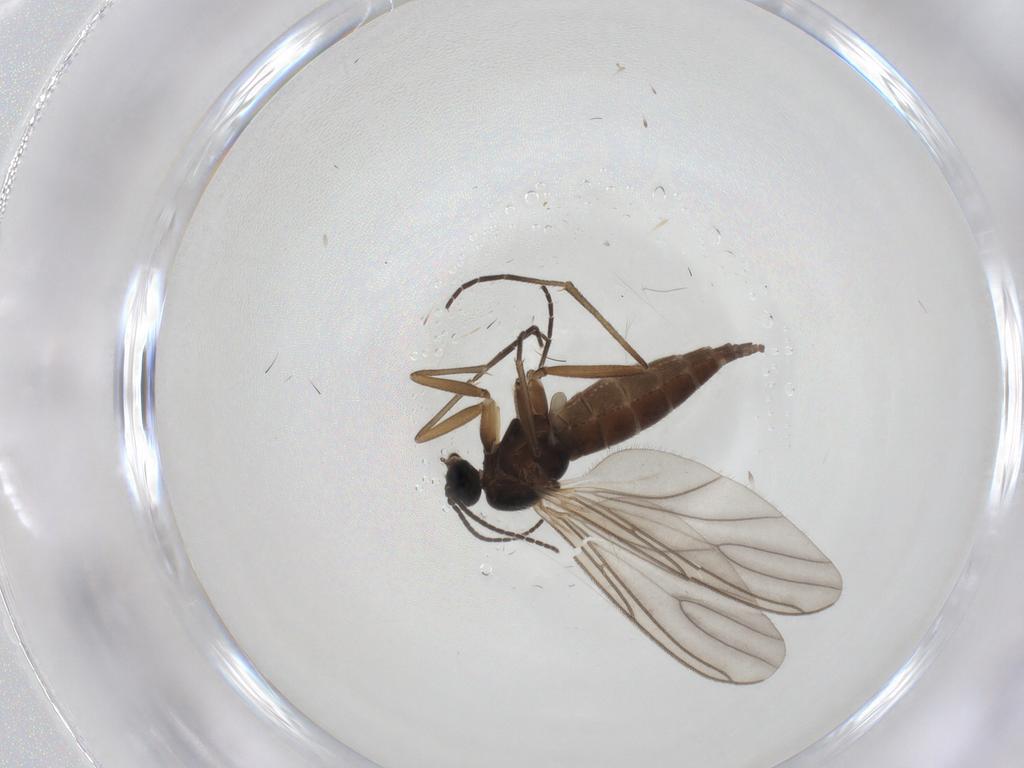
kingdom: Animalia
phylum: Arthropoda
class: Insecta
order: Diptera
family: Sciaridae
